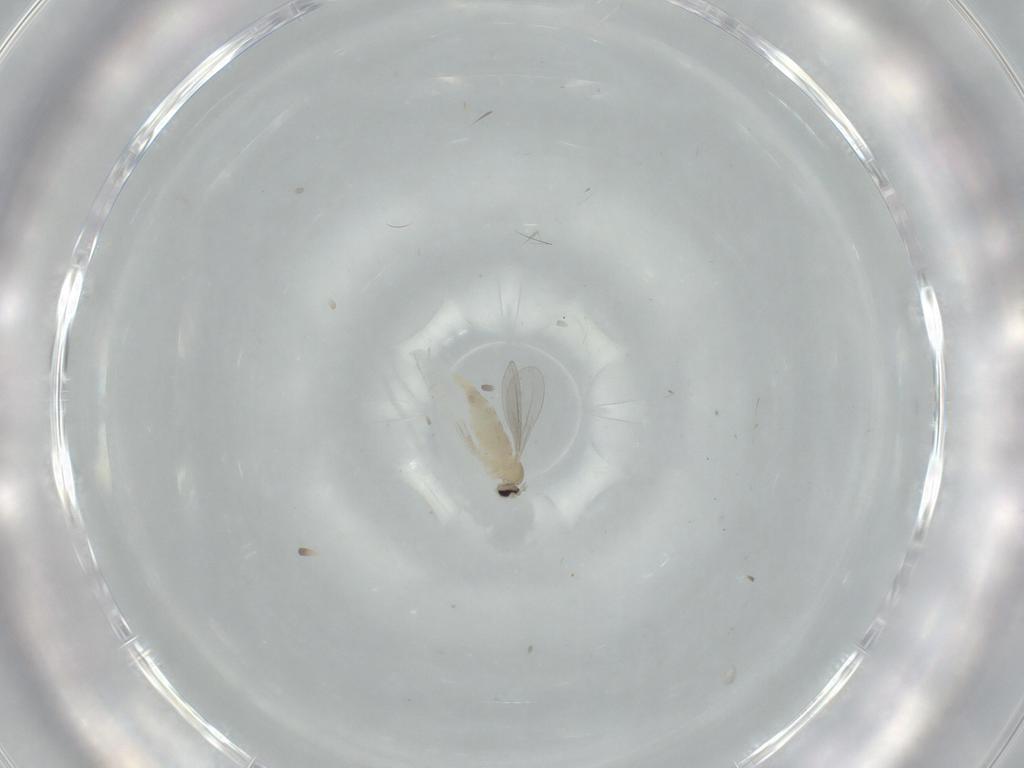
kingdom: Animalia
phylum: Arthropoda
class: Insecta
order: Diptera
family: Cecidomyiidae
